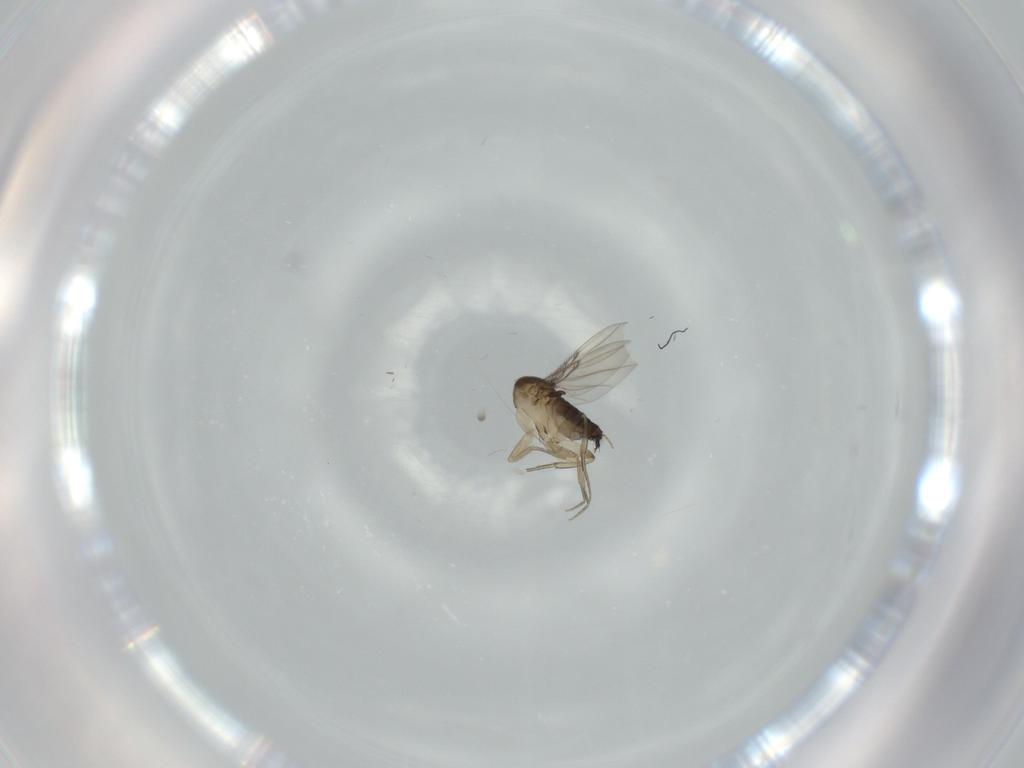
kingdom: Animalia
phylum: Arthropoda
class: Insecta
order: Diptera
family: Phoridae
